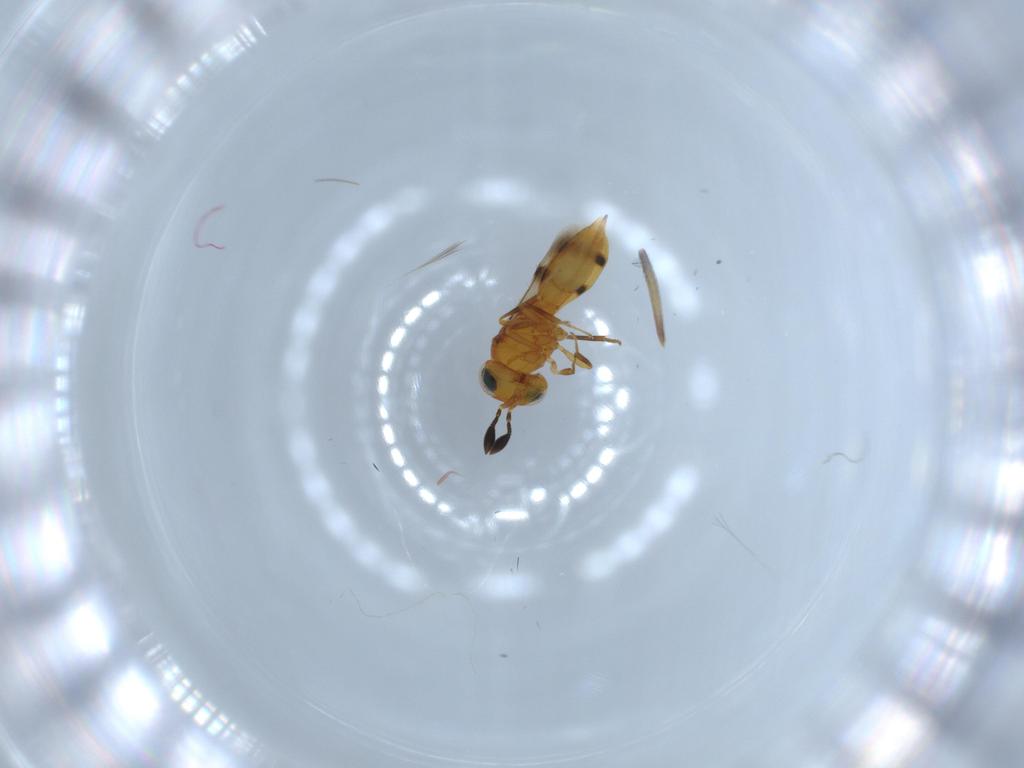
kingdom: Animalia
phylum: Arthropoda
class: Insecta
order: Hymenoptera
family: Scelionidae
